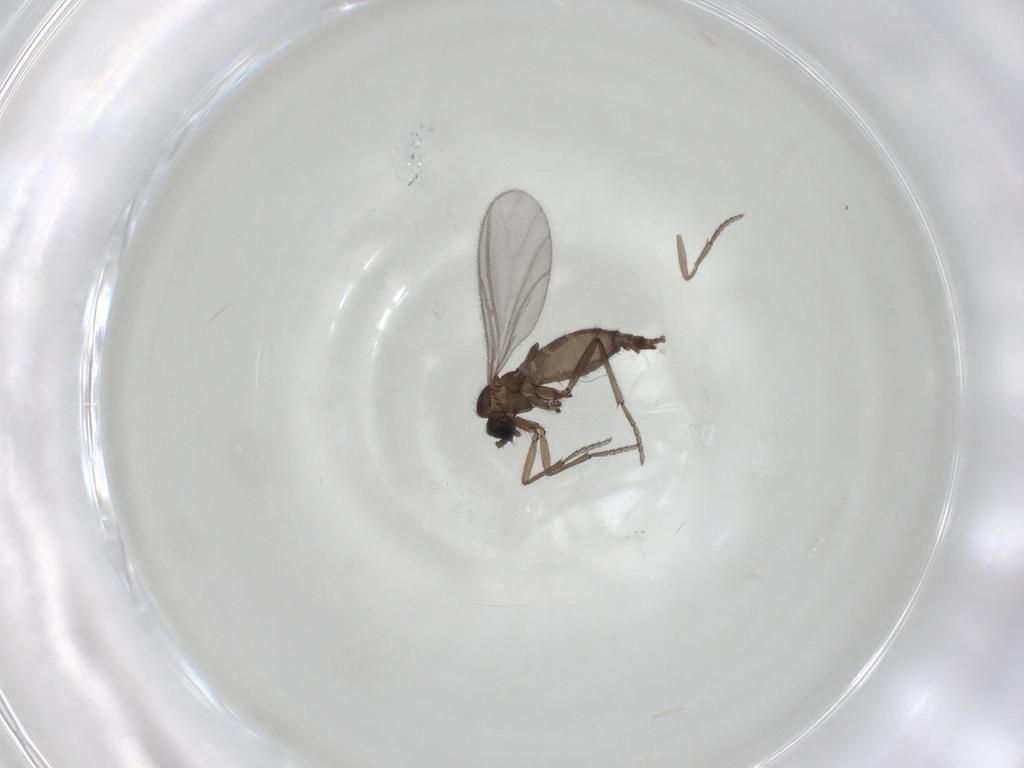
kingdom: Animalia
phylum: Arthropoda
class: Insecta
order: Diptera
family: Sciaridae
